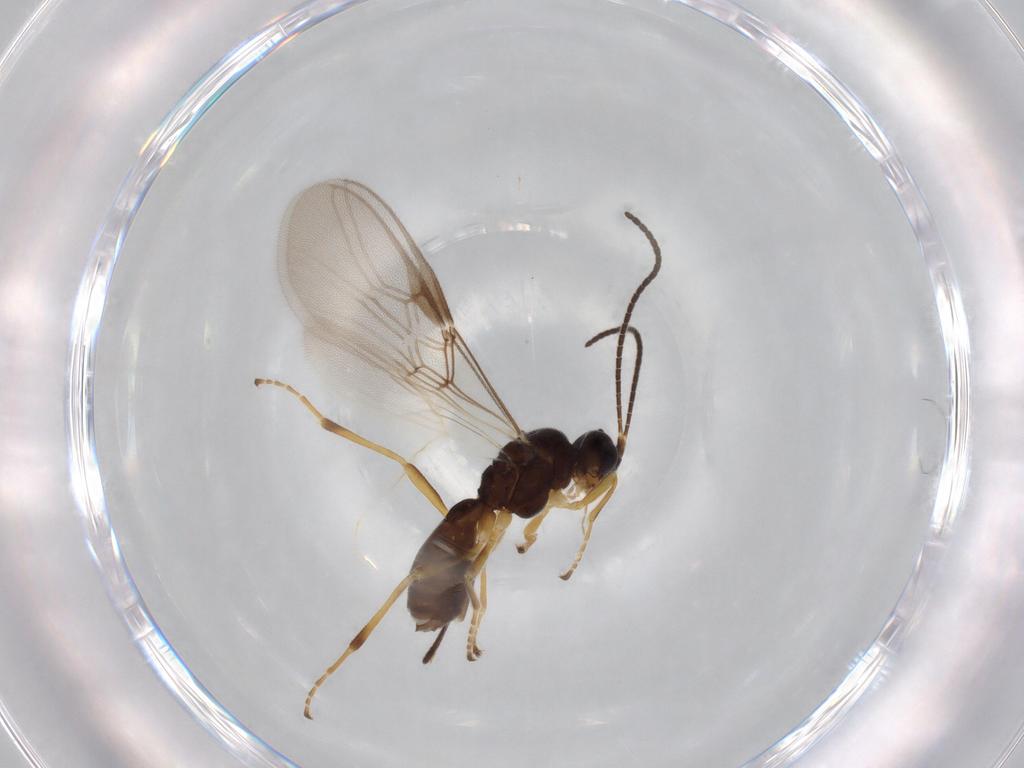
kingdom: Animalia
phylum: Arthropoda
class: Insecta
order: Hymenoptera
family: Braconidae
